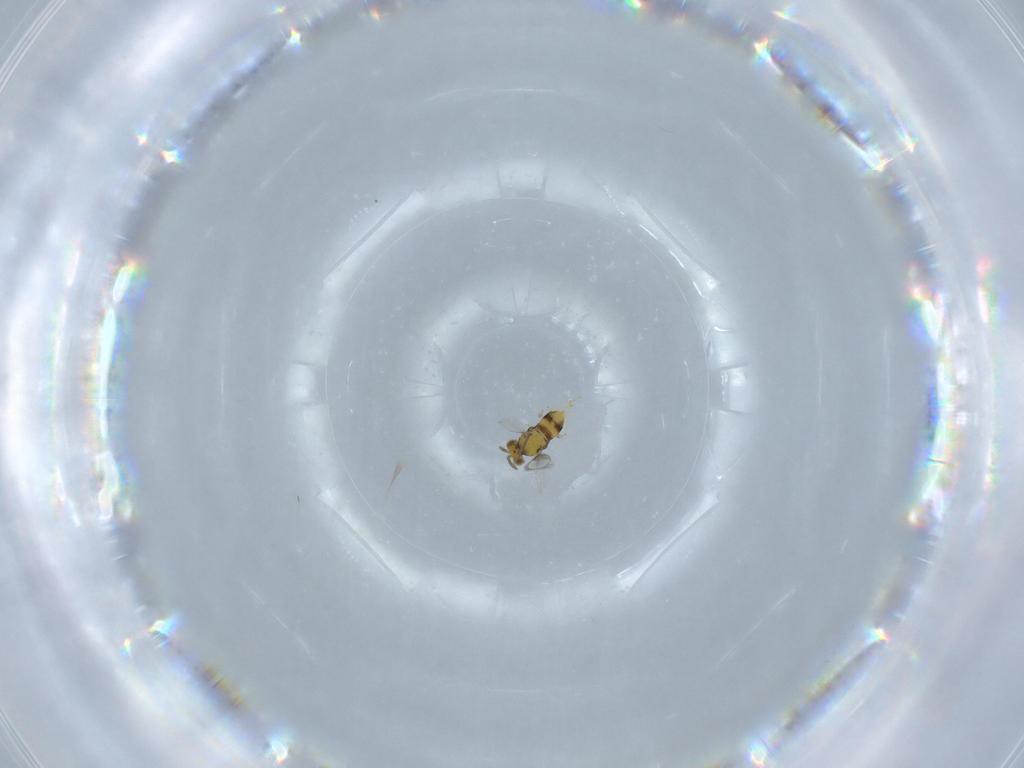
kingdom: Animalia
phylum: Arthropoda
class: Insecta
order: Hymenoptera
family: Aphelinidae
